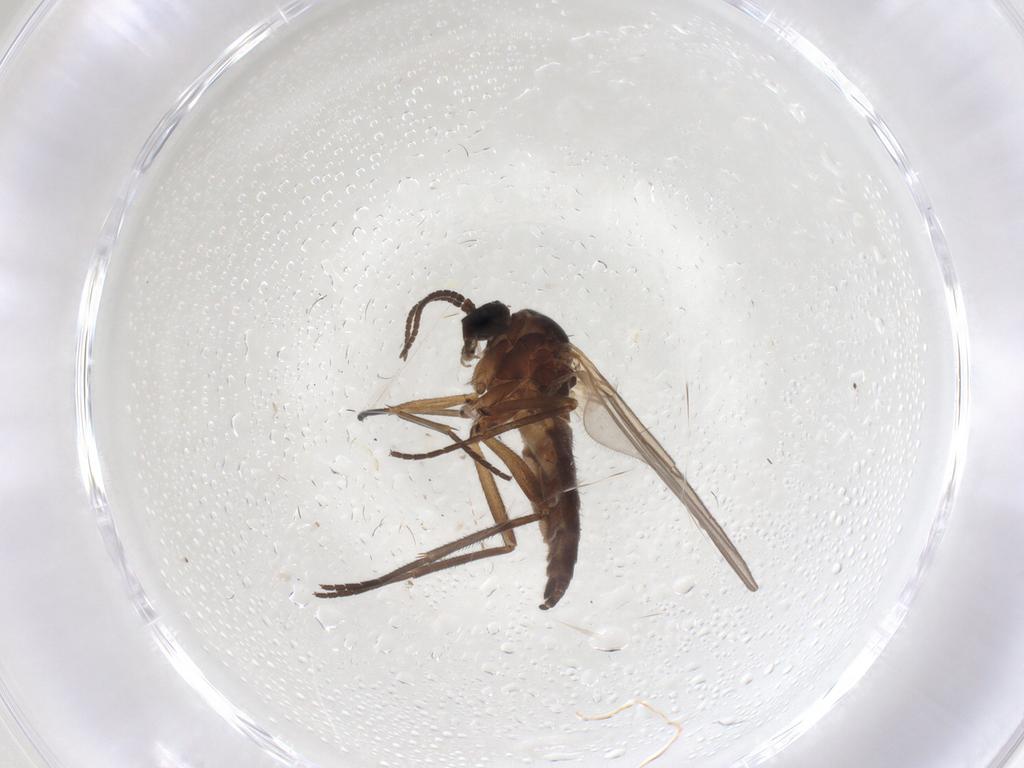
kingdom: Animalia
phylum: Arthropoda
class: Insecta
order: Diptera
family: Sciaridae
